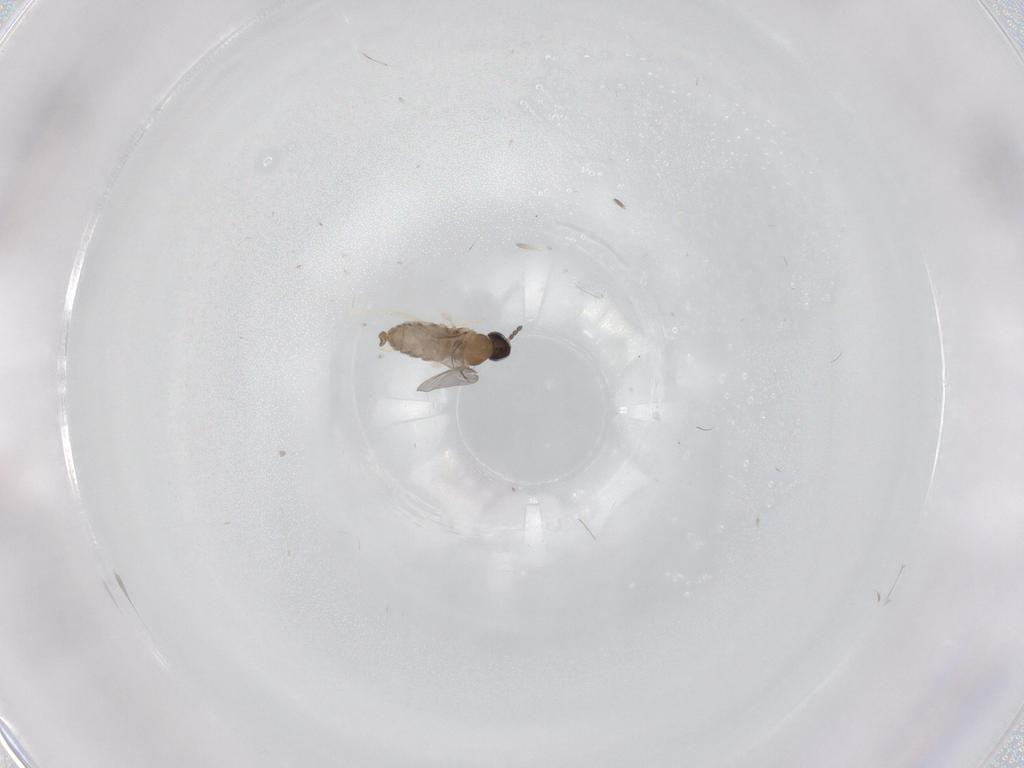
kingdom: Animalia
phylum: Arthropoda
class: Insecta
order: Diptera
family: Cecidomyiidae
